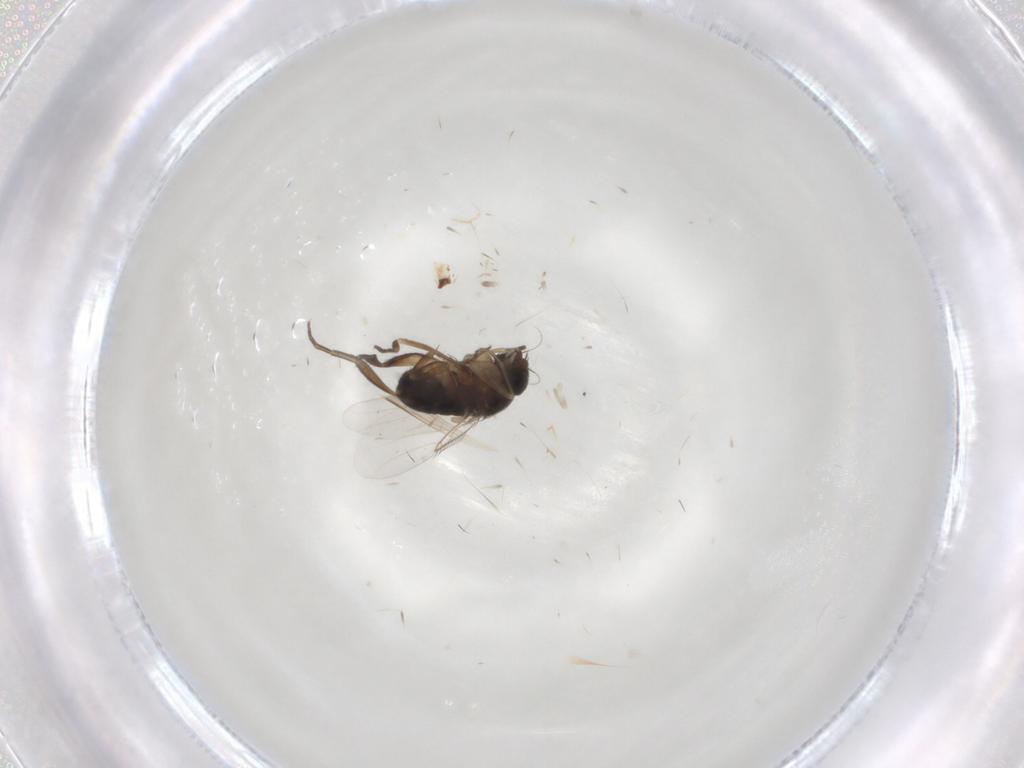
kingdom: Animalia
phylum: Arthropoda
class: Insecta
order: Diptera
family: Phoridae
